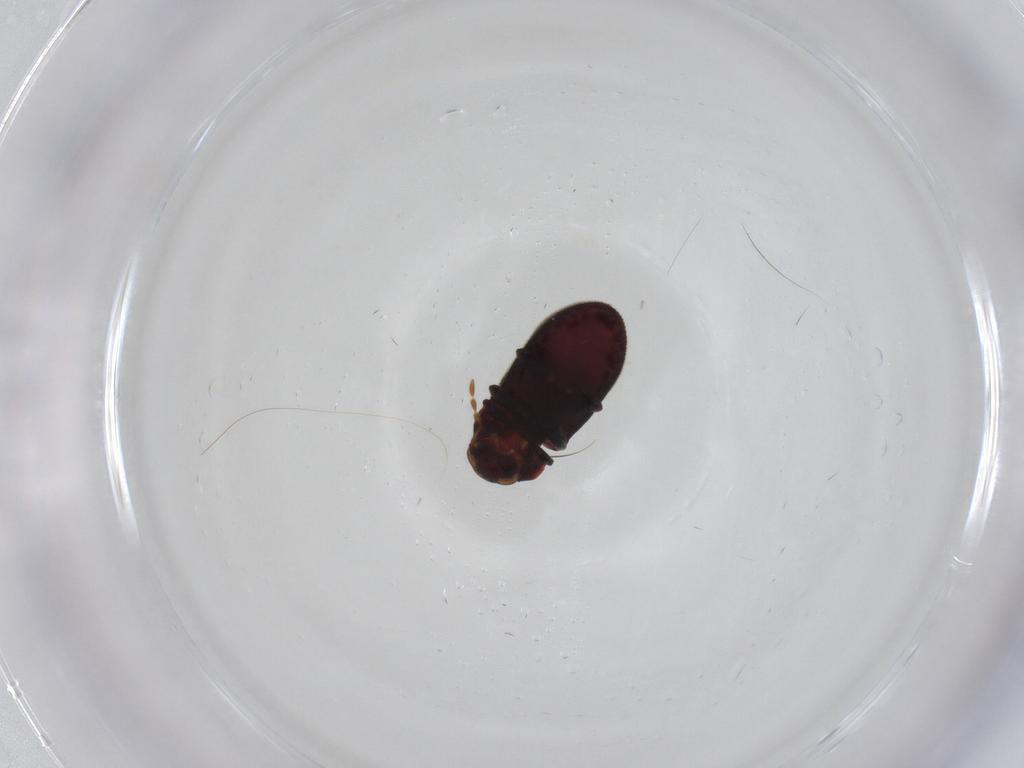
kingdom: Animalia
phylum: Arthropoda
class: Insecta
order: Coleoptera
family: Ptinidae
